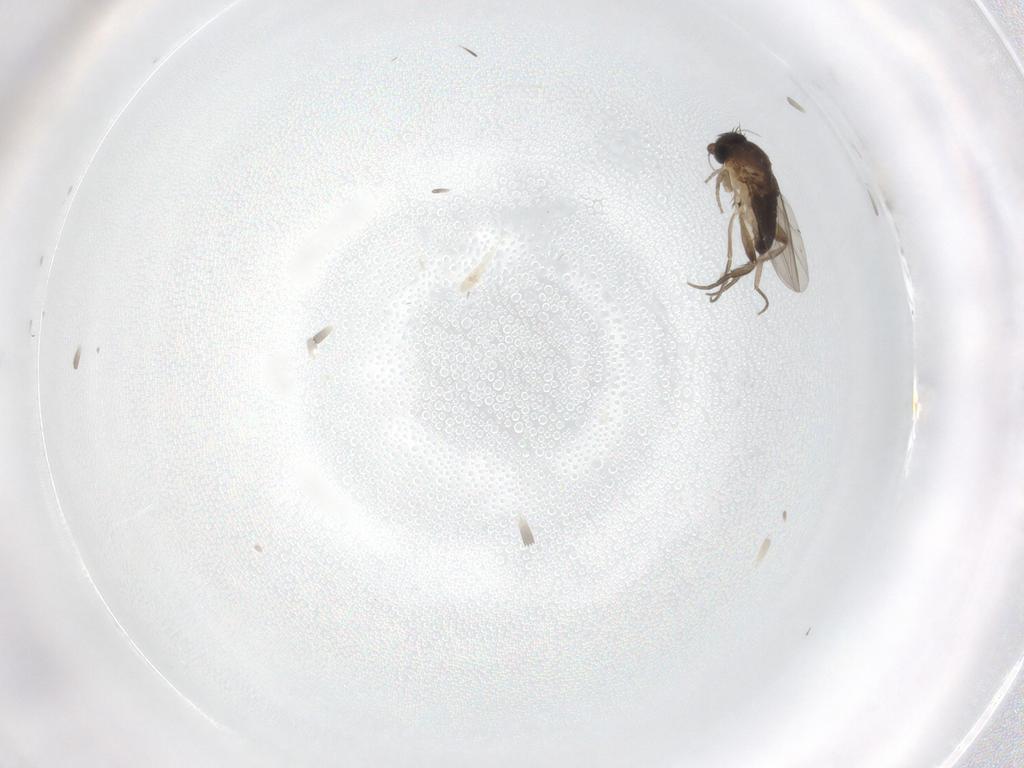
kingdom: Animalia
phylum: Arthropoda
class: Insecta
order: Diptera
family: Phoridae
